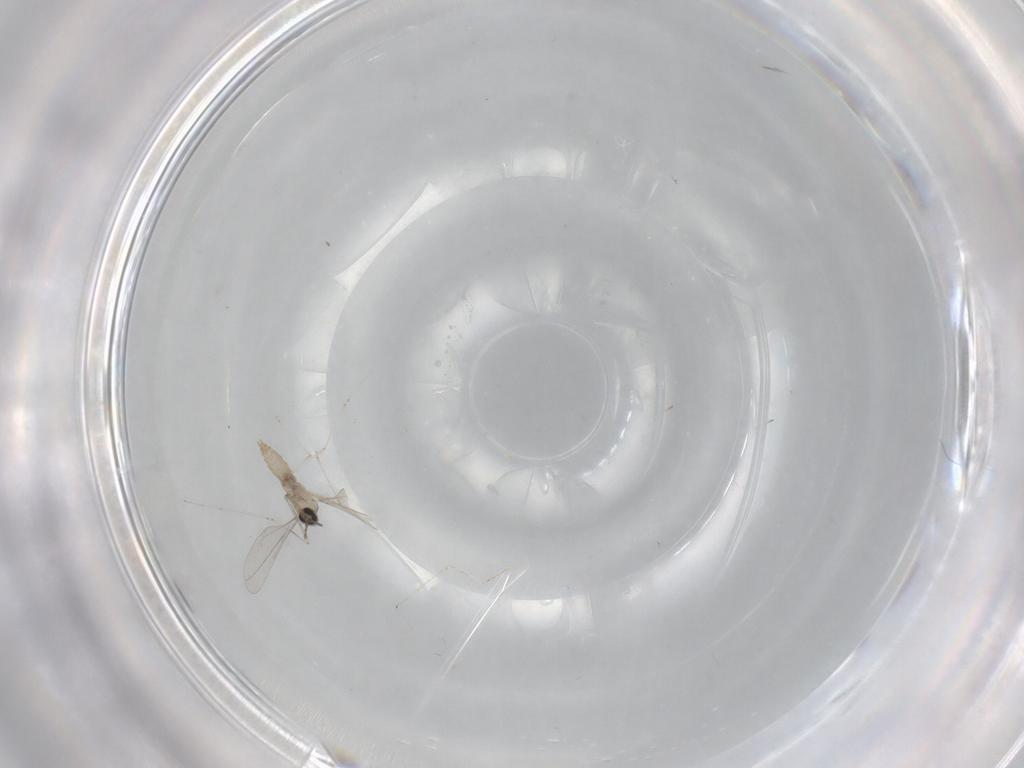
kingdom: Animalia
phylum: Arthropoda
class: Insecta
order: Diptera
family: Cecidomyiidae
